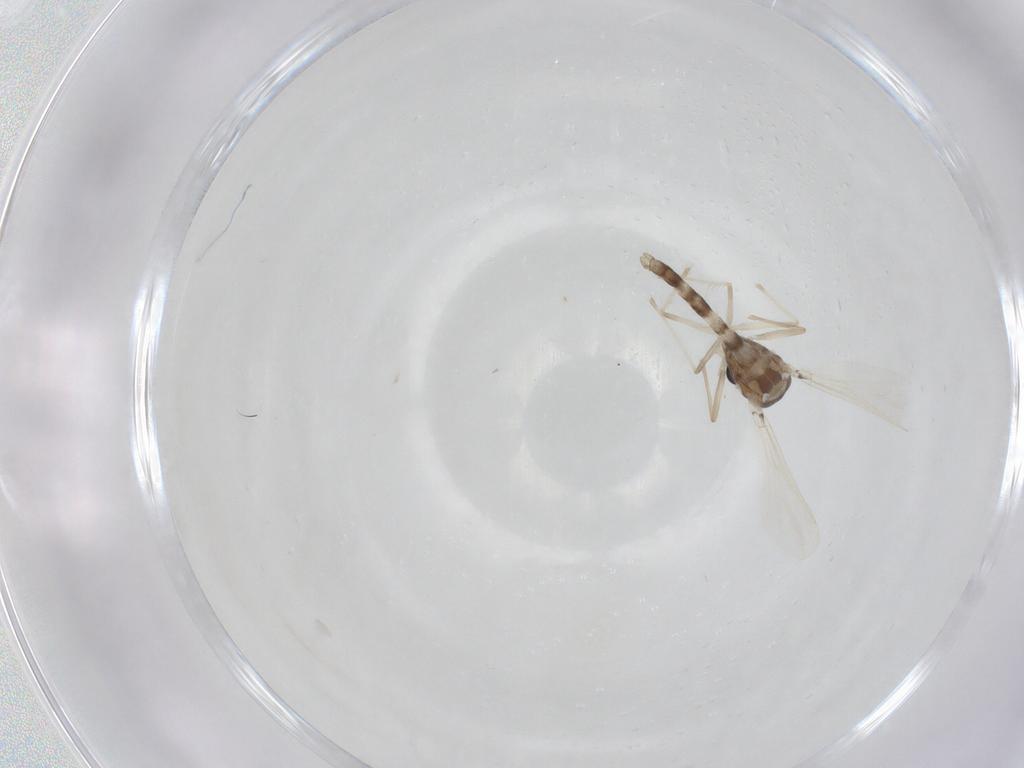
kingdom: Animalia
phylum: Arthropoda
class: Insecta
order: Diptera
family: Chironomidae
